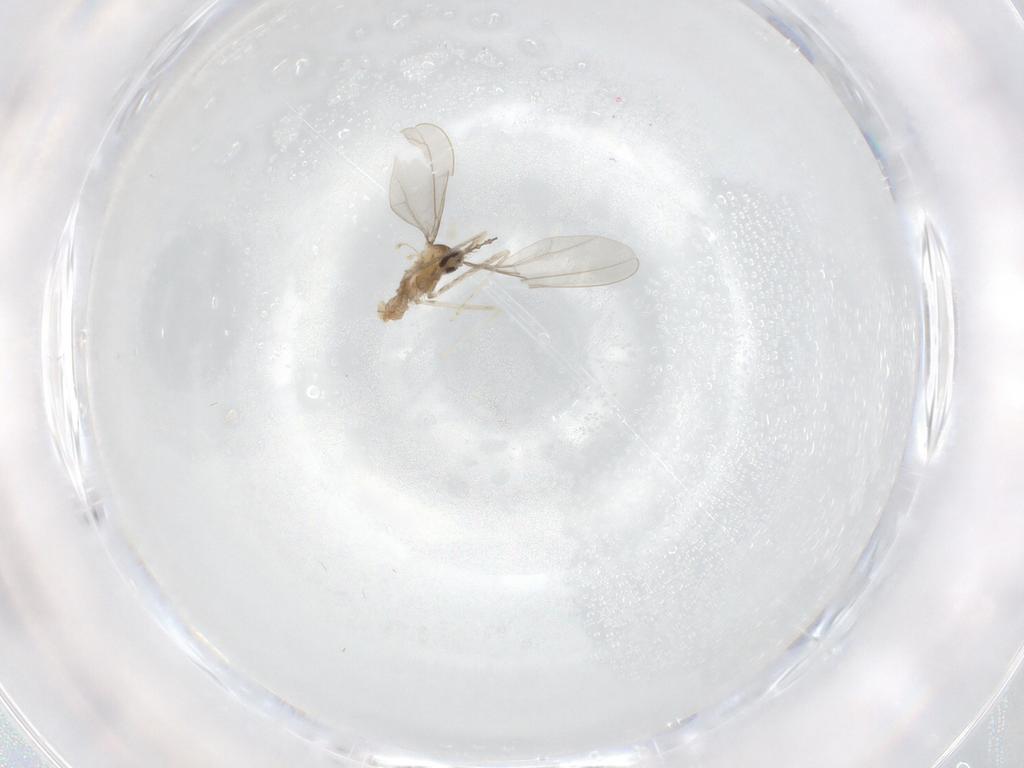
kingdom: Animalia
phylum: Arthropoda
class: Insecta
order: Diptera
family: Cecidomyiidae
